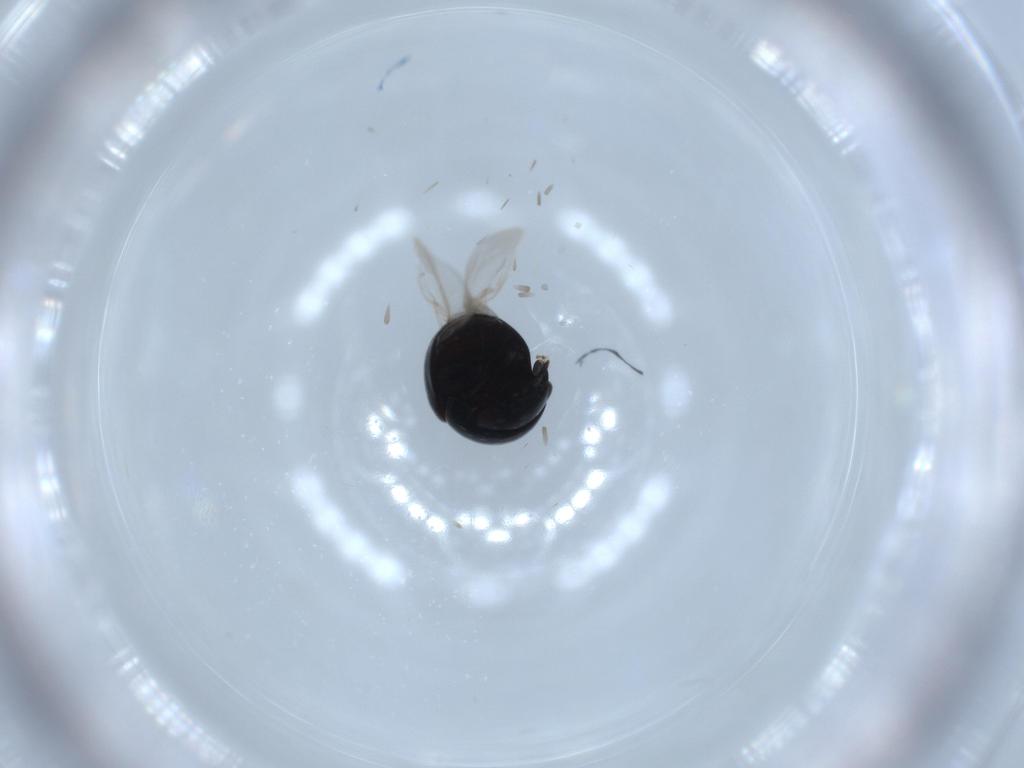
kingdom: Animalia
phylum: Arthropoda
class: Insecta
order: Coleoptera
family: Cybocephalidae
